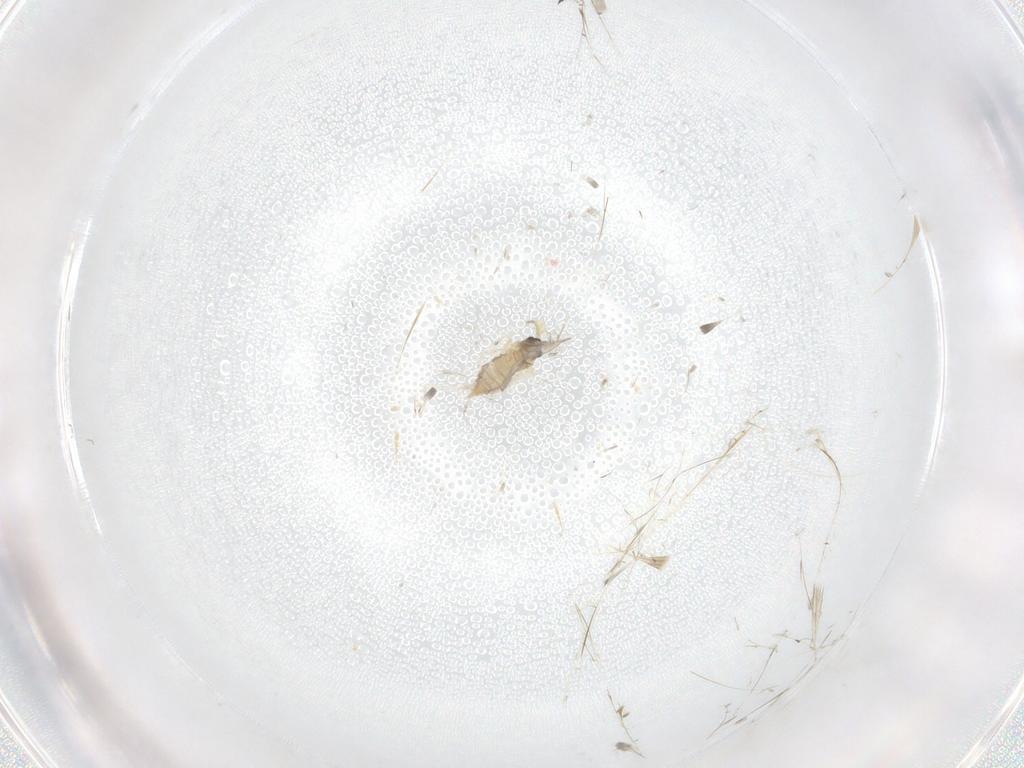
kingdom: Animalia
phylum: Arthropoda
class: Insecta
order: Diptera
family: Cecidomyiidae
